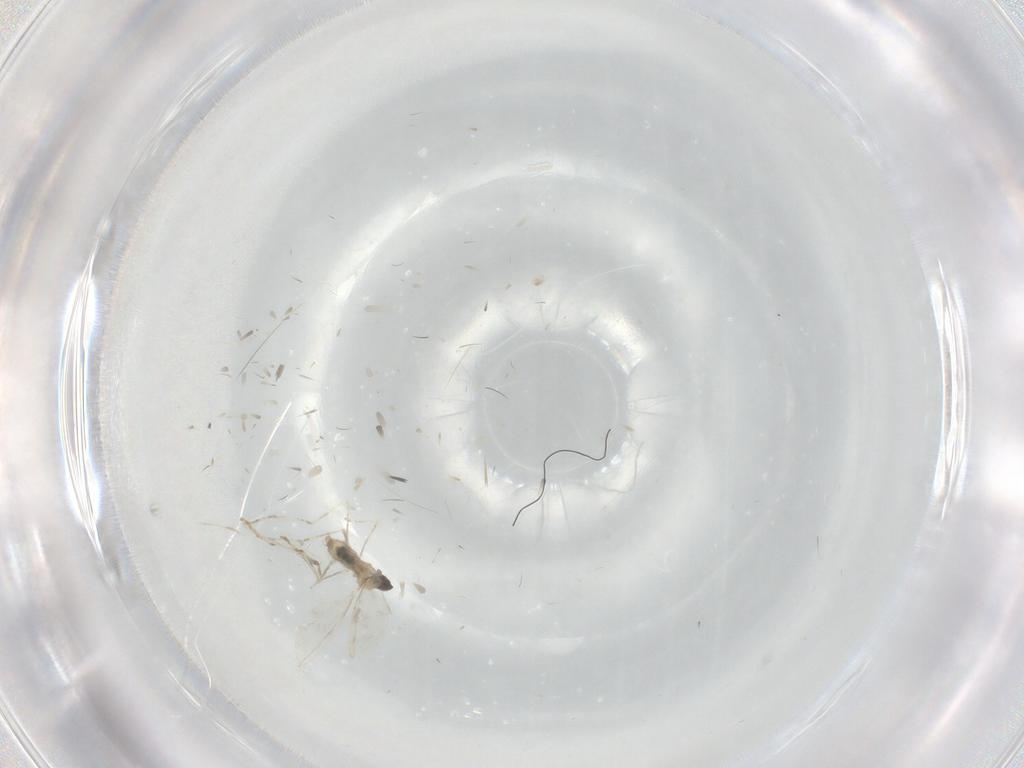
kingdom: Animalia
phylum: Arthropoda
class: Insecta
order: Diptera
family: Cecidomyiidae
